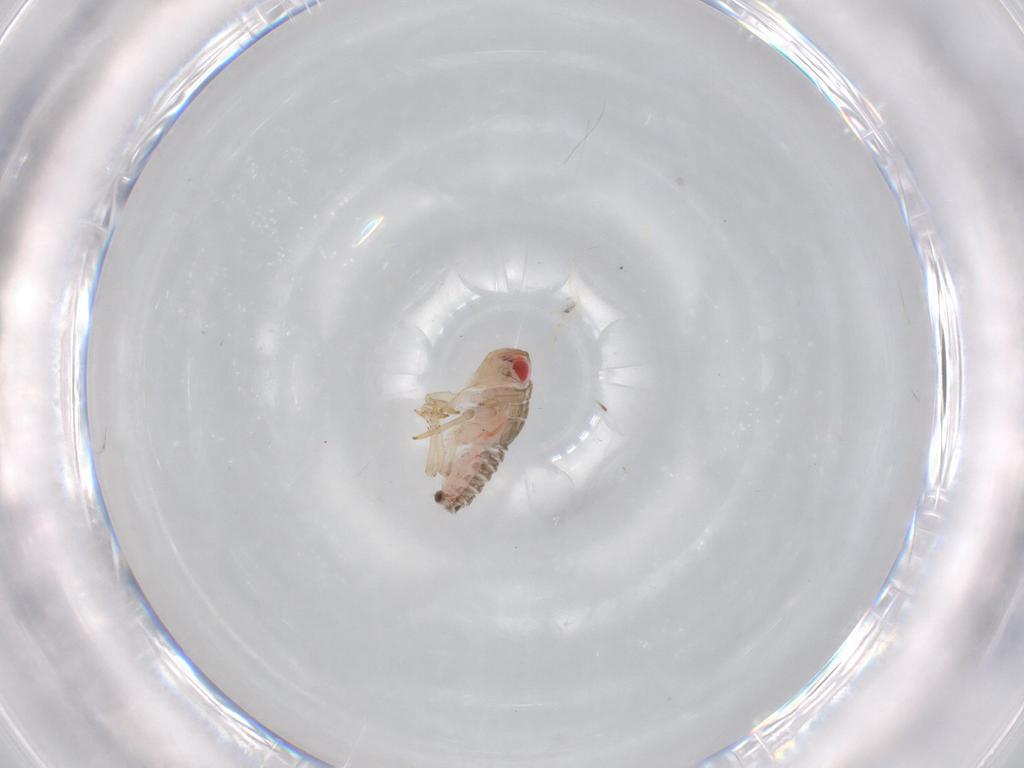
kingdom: Animalia
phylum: Arthropoda
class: Insecta
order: Hemiptera
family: Issidae
